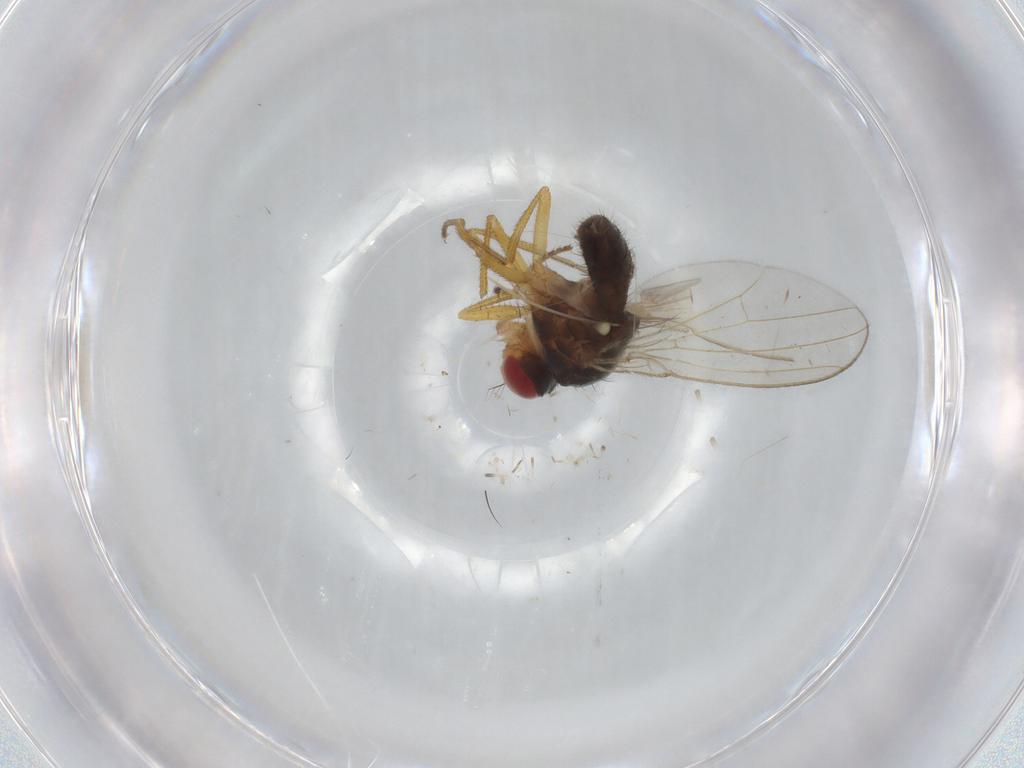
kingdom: Animalia
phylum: Arthropoda
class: Insecta
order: Diptera
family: Drosophilidae
